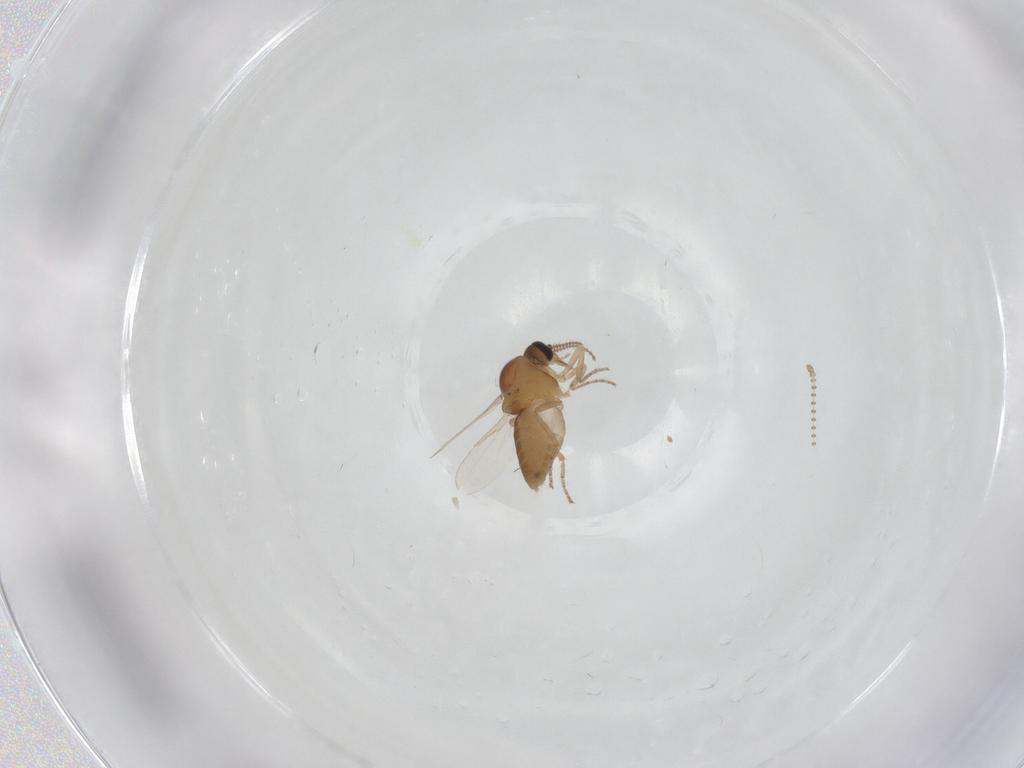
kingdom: Animalia
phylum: Arthropoda
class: Insecta
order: Diptera
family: Ceratopogonidae
